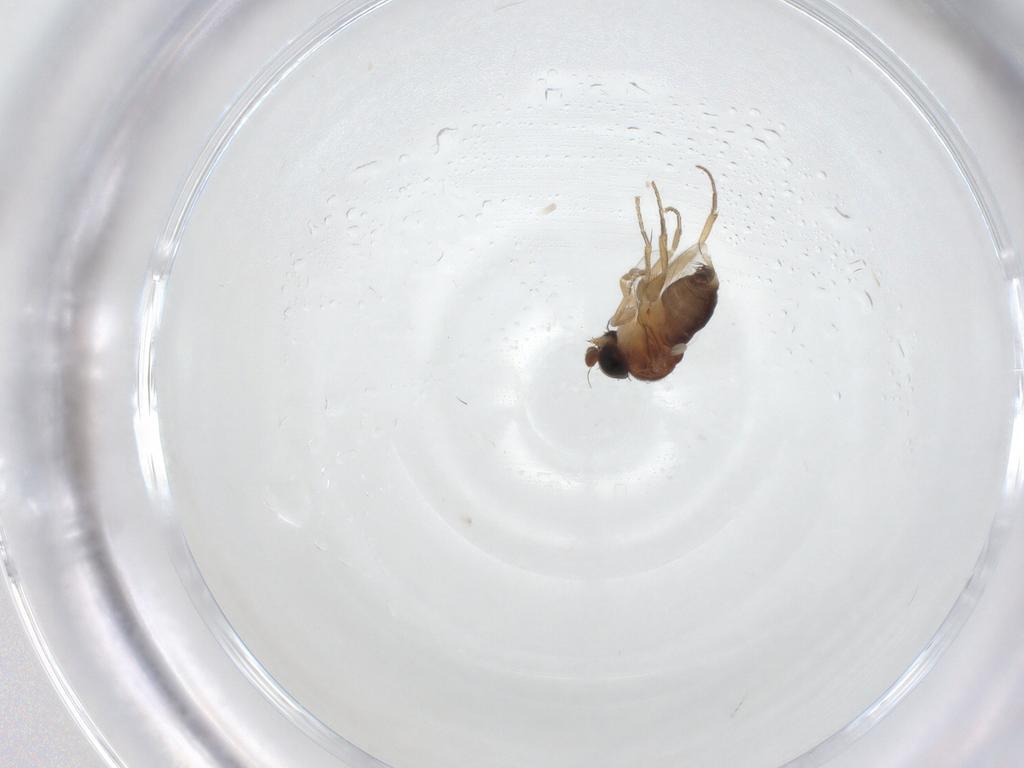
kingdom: Animalia
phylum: Arthropoda
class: Insecta
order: Diptera
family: Phoridae
